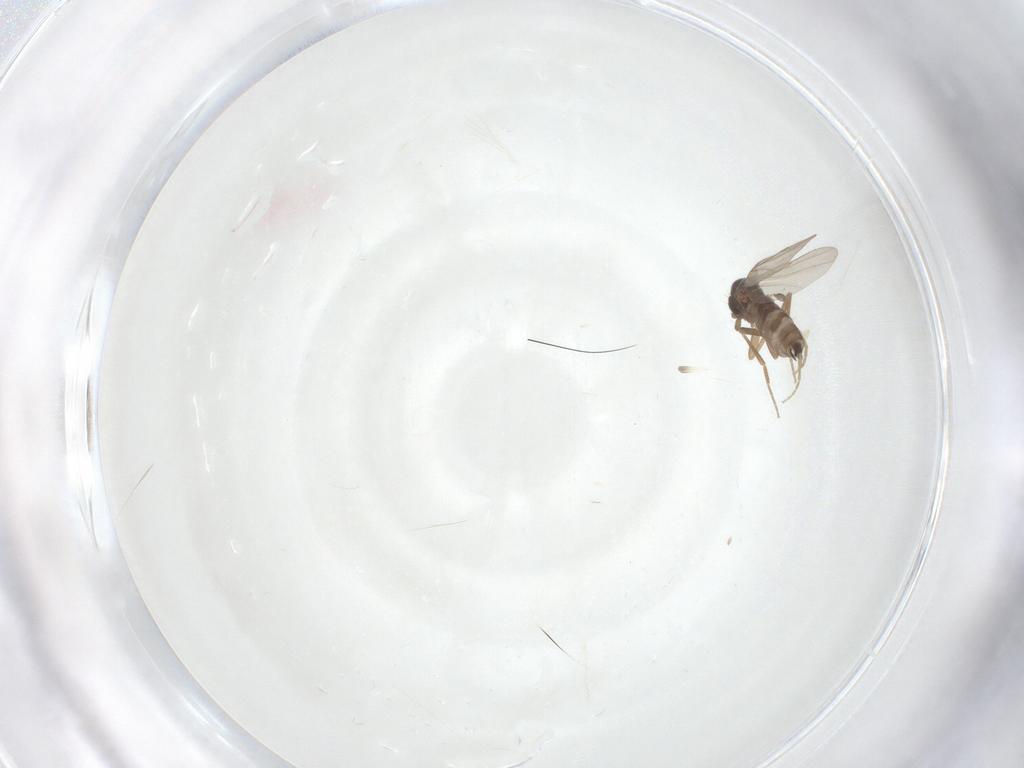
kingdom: Animalia
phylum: Arthropoda
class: Insecta
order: Diptera
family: Phoridae
